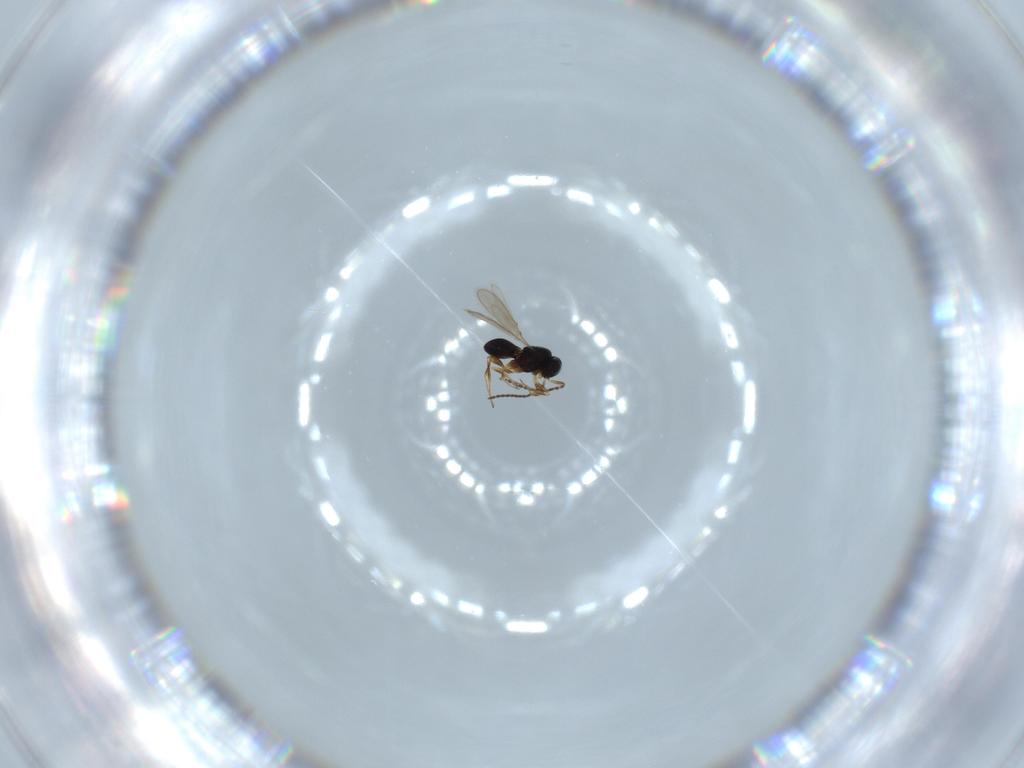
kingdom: Animalia
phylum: Arthropoda
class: Insecta
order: Hymenoptera
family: Scelionidae
